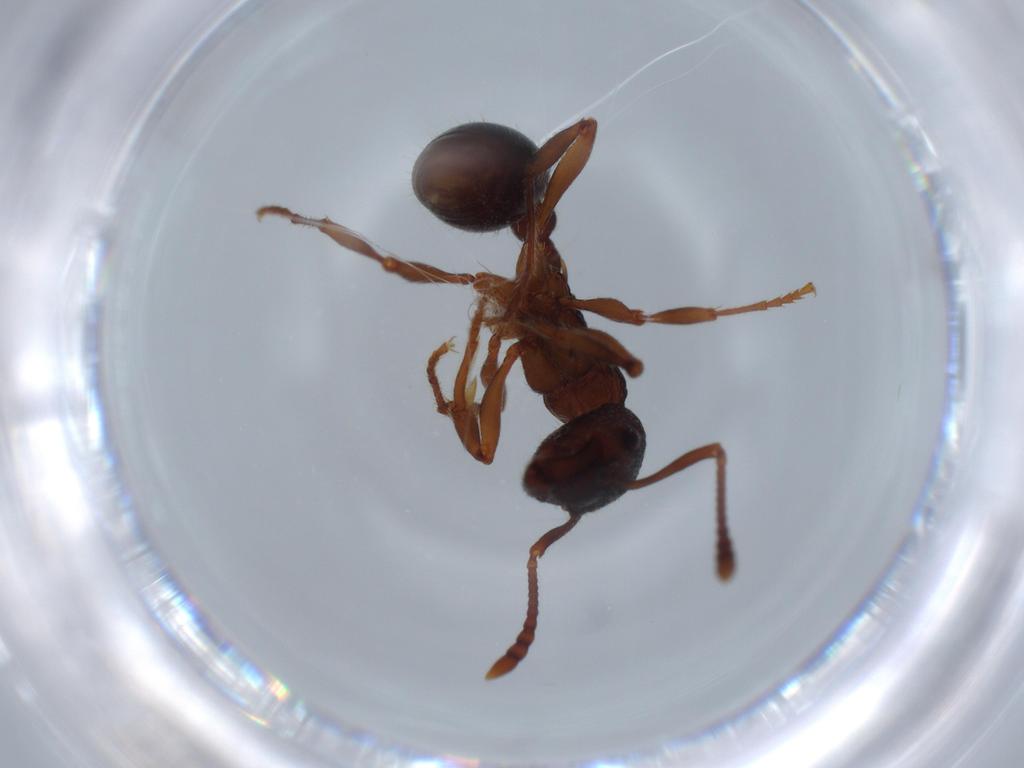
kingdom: Animalia
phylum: Arthropoda
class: Insecta
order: Hymenoptera
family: Formicidae
